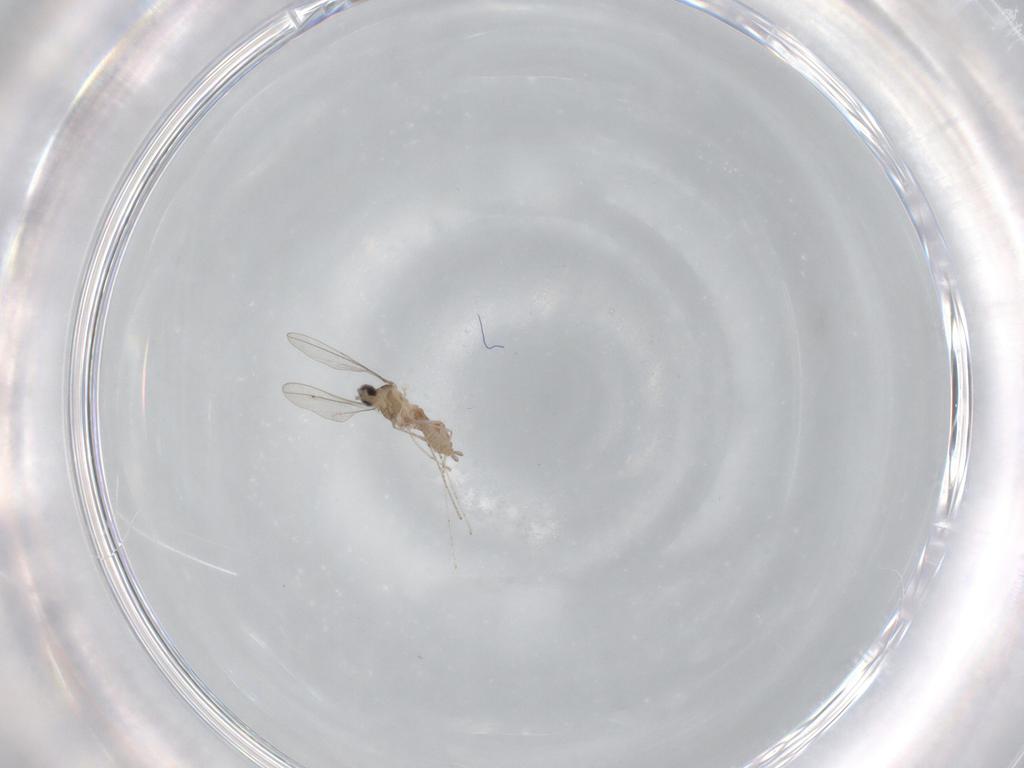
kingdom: Animalia
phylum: Arthropoda
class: Insecta
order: Diptera
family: Cecidomyiidae
